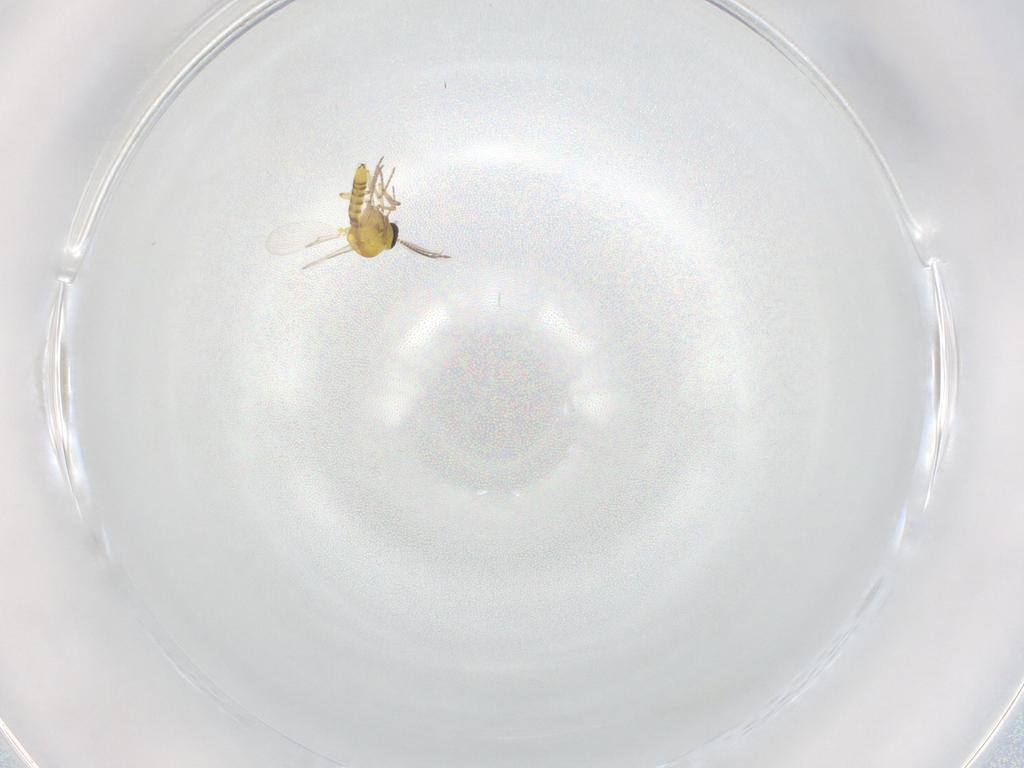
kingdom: Animalia
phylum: Arthropoda
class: Insecta
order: Diptera
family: Ceratopogonidae
